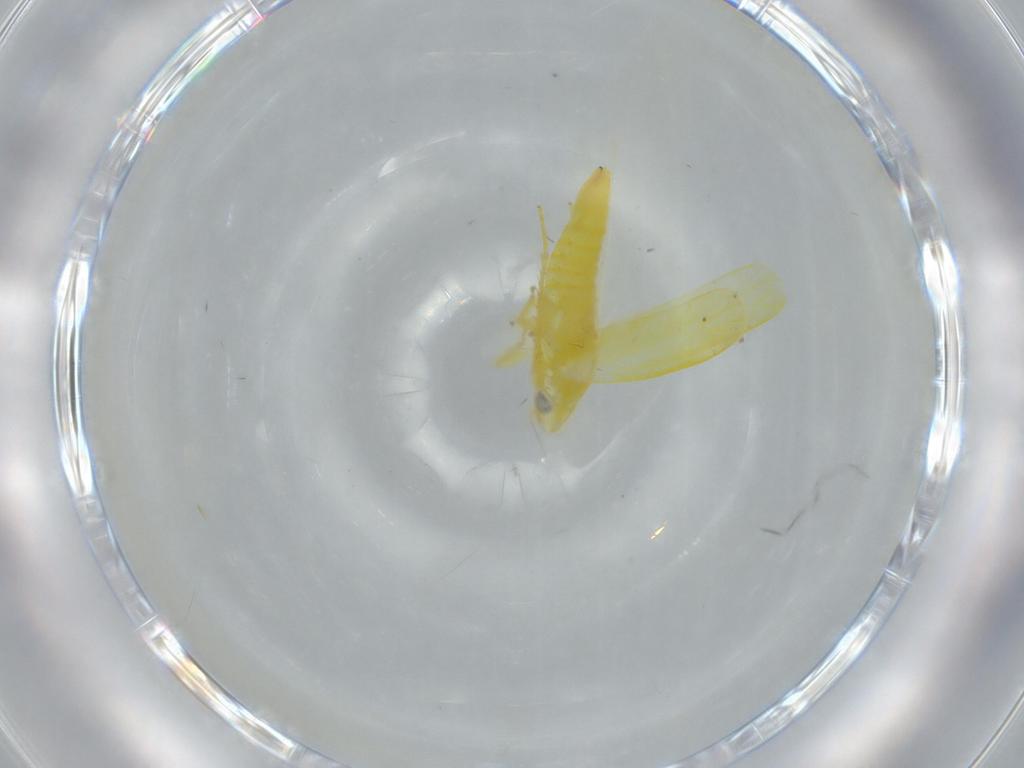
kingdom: Animalia
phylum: Arthropoda
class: Insecta
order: Hemiptera
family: Cicadellidae
